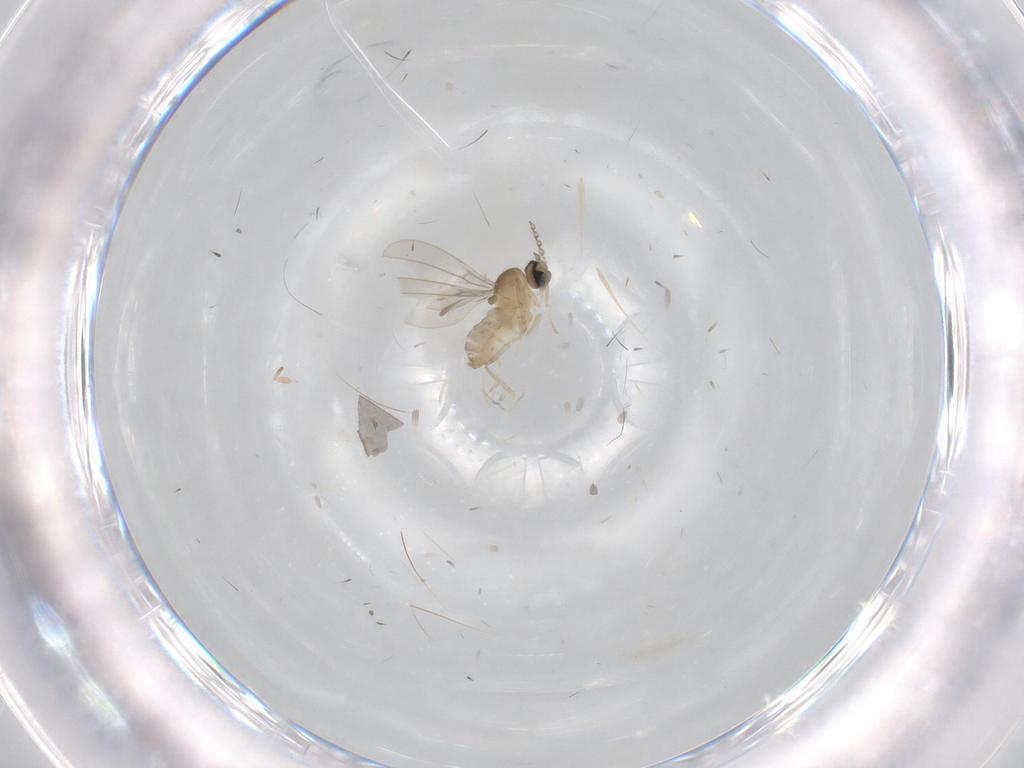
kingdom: Animalia
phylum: Arthropoda
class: Insecta
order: Diptera
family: Cecidomyiidae
